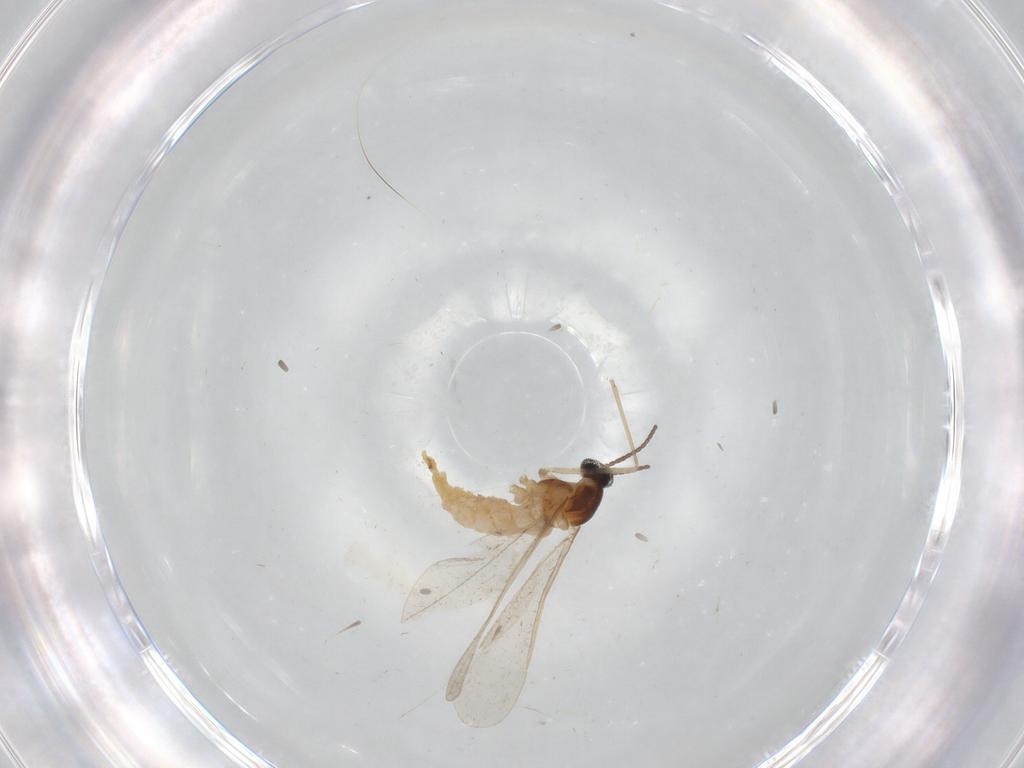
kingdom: Animalia
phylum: Arthropoda
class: Insecta
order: Diptera
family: Cecidomyiidae
